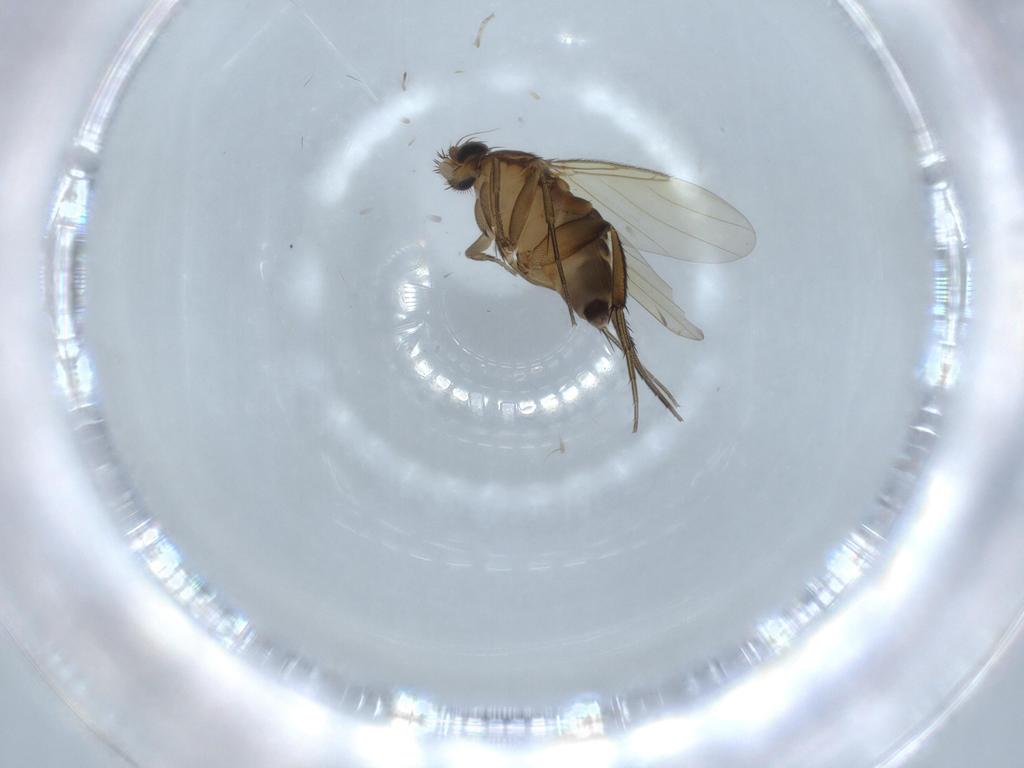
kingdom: Animalia
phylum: Arthropoda
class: Insecta
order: Diptera
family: Phoridae
